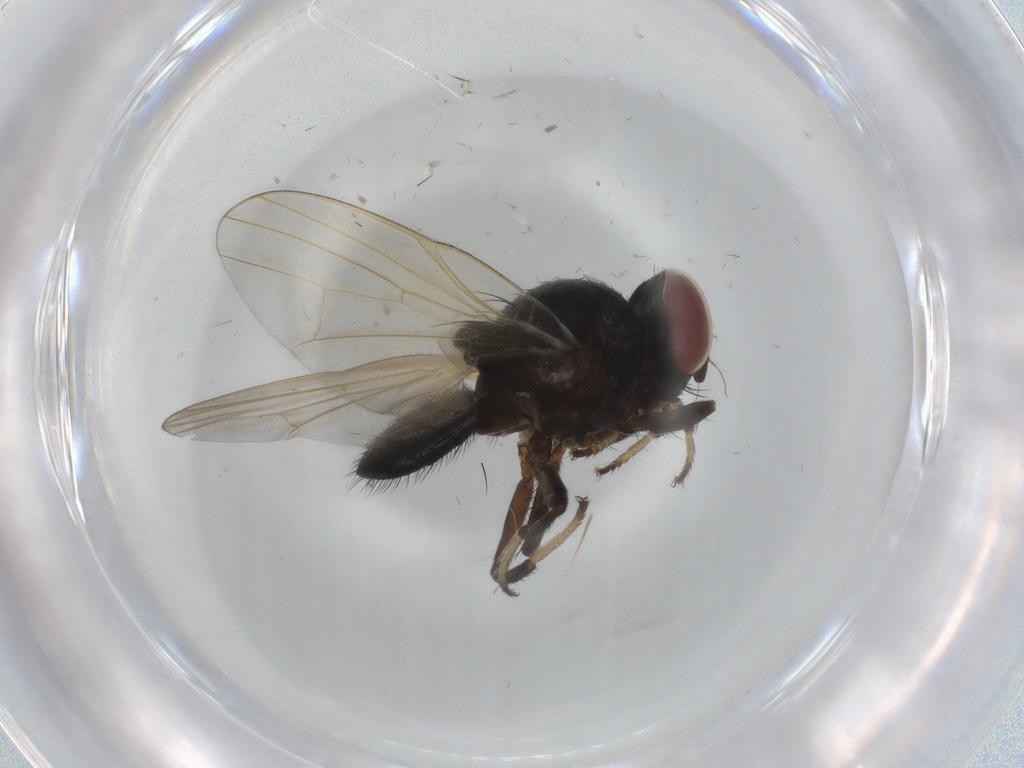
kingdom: Animalia
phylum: Arthropoda
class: Insecta
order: Diptera
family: Lonchaeidae
